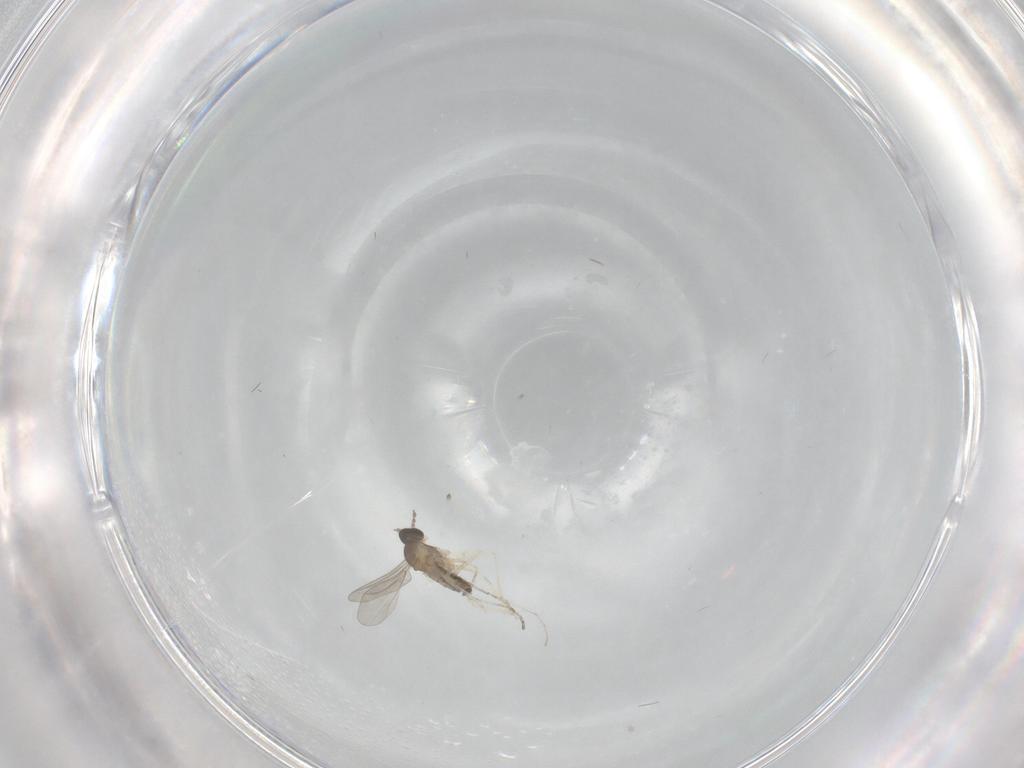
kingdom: Animalia
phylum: Arthropoda
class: Insecta
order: Diptera
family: Cecidomyiidae
